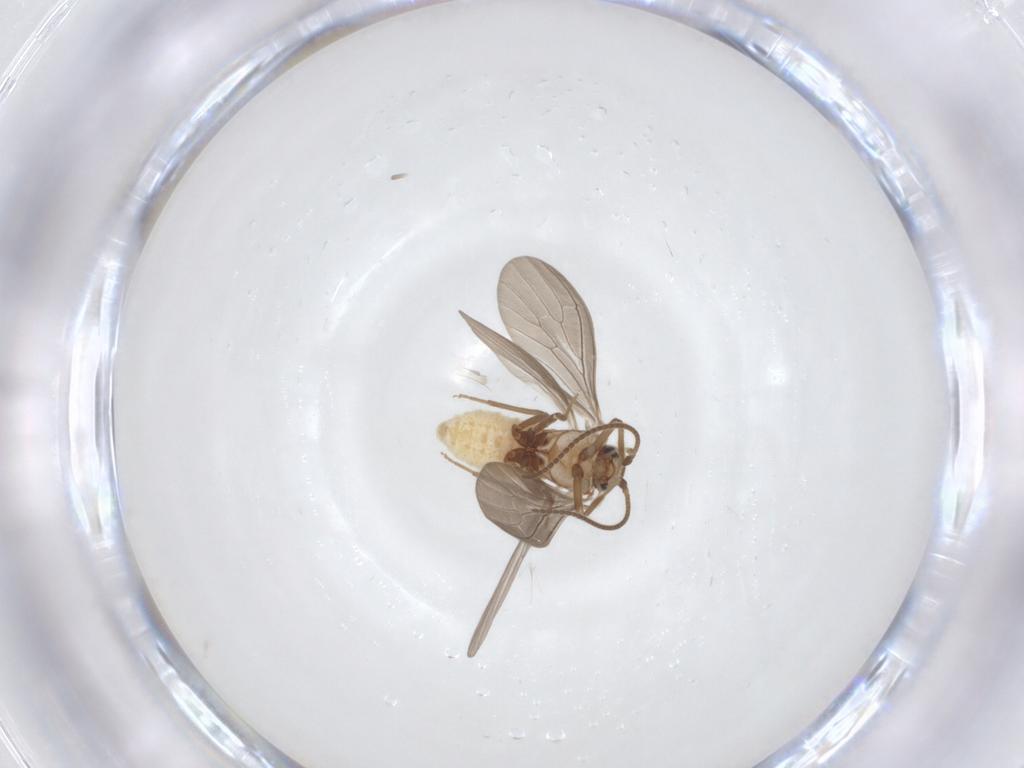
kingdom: Animalia
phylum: Arthropoda
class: Insecta
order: Neuroptera
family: Coniopterygidae
